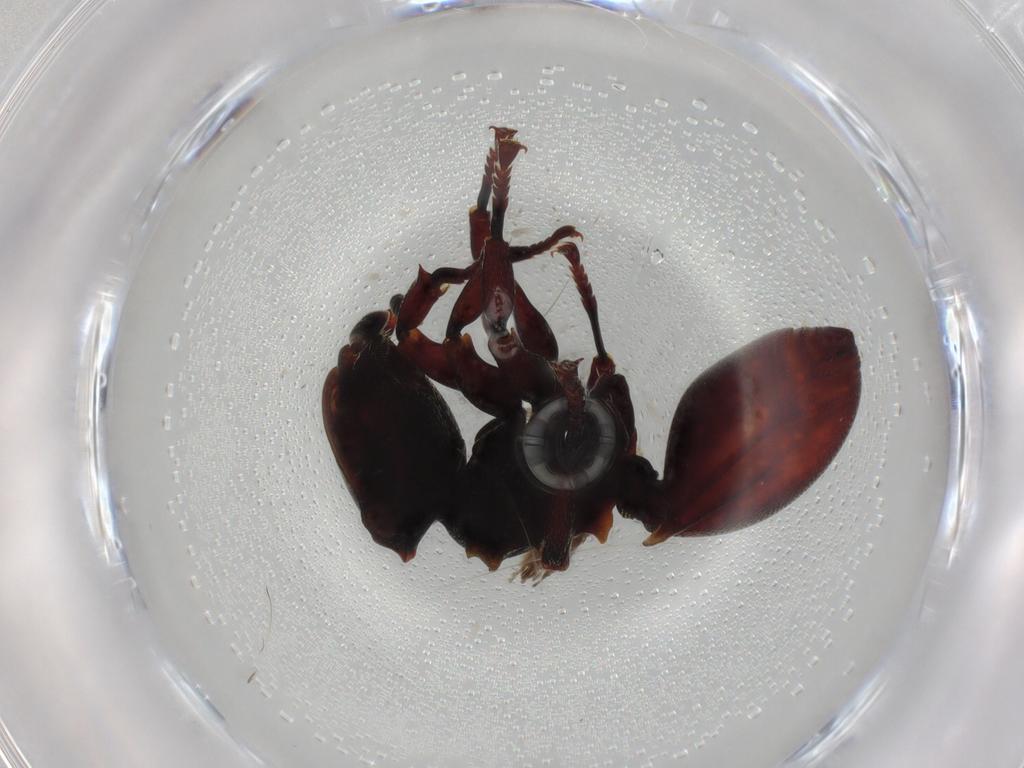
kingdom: Animalia
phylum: Arthropoda
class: Insecta
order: Hymenoptera
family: Formicidae
